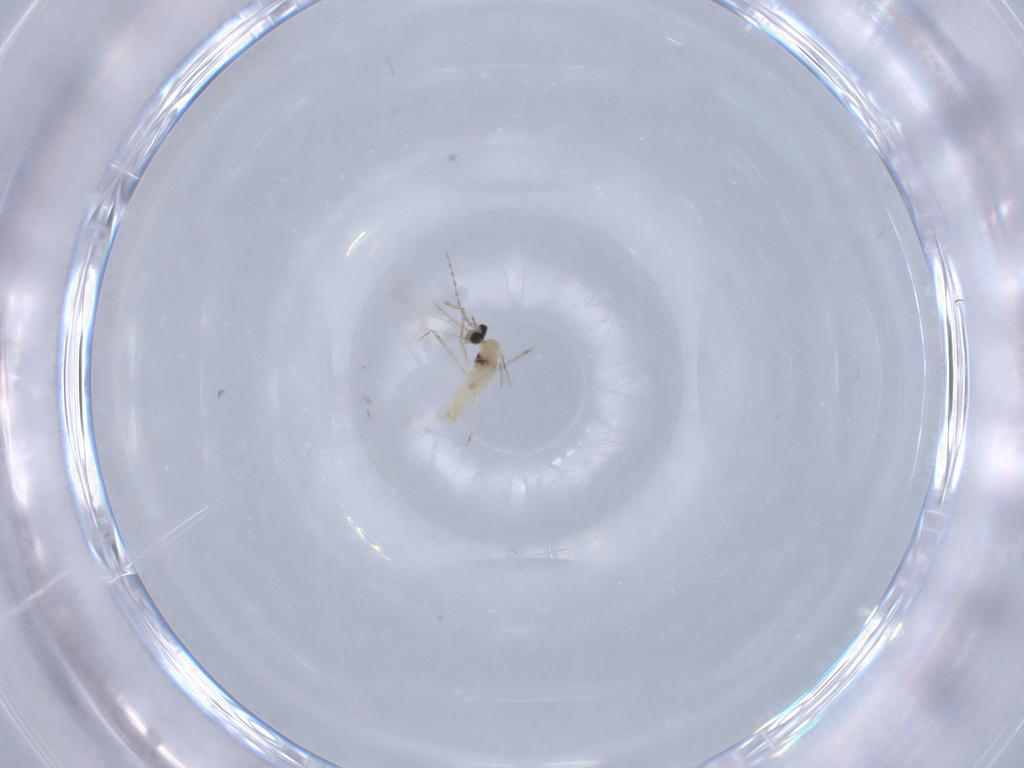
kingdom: Animalia
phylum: Arthropoda
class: Insecta
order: Diptera
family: Cecidomyiidae
